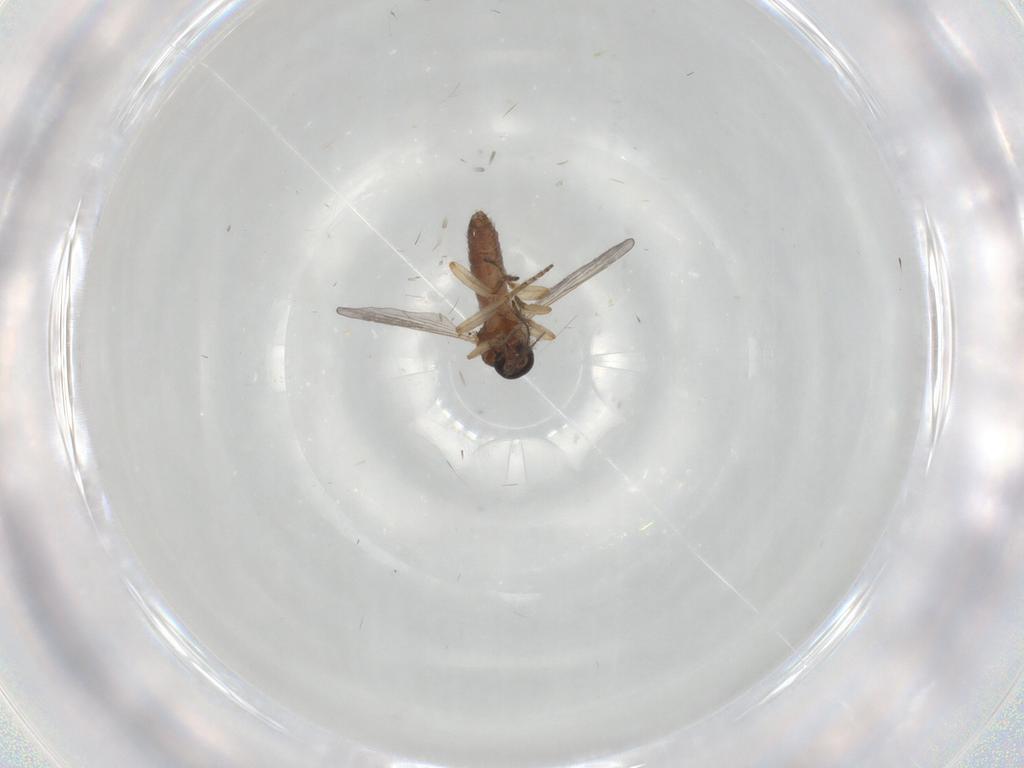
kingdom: Animalia
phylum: Arthropoda
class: Insecta
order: Diptera
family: Ceratopogonidae
